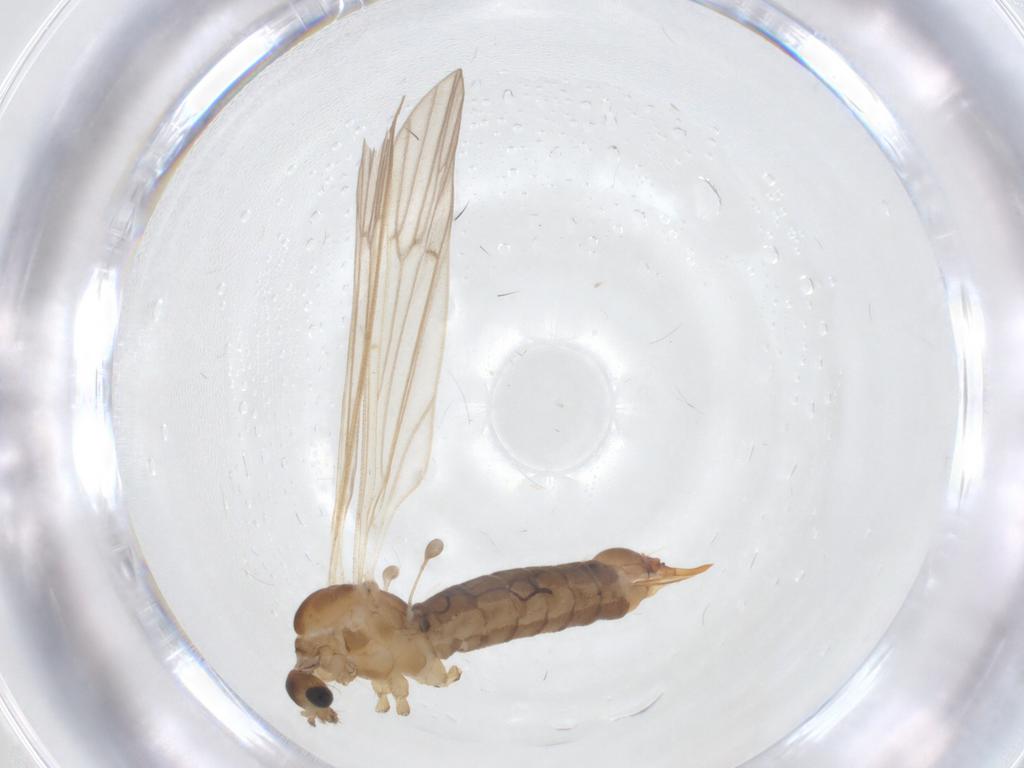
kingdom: Animalia
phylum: Arthropoda
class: Insecta
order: Diptera
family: Limoniidae
